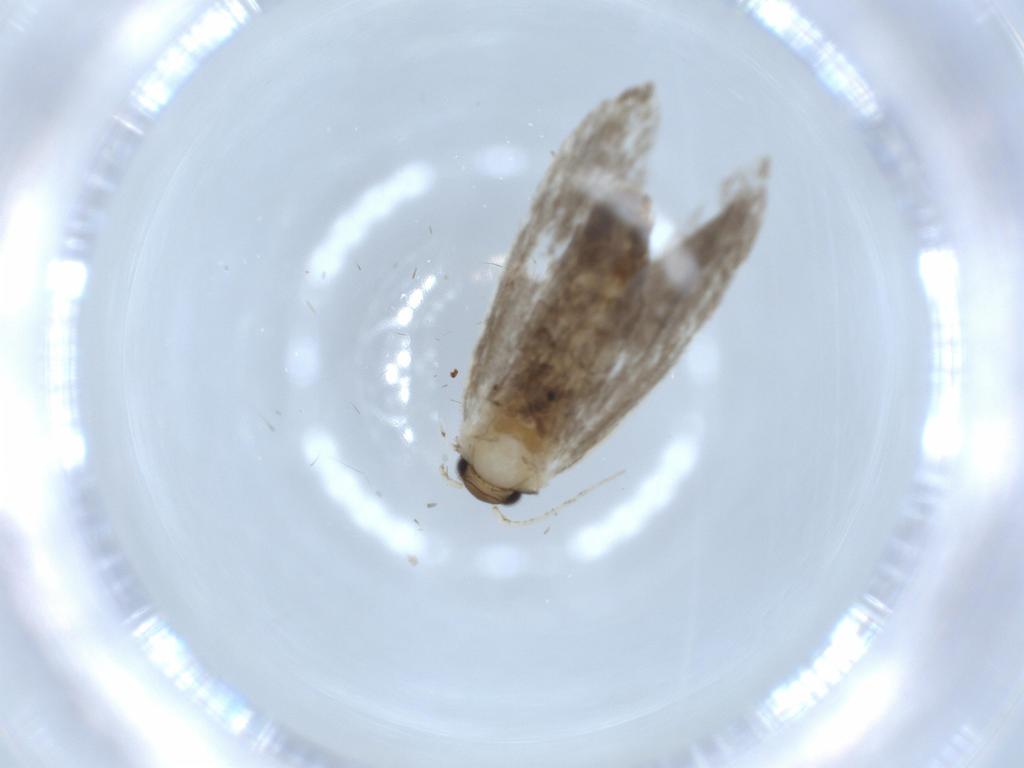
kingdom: Animalia
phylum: Arthropoda
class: Insecta
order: Lepidoptera
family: Tineidae
